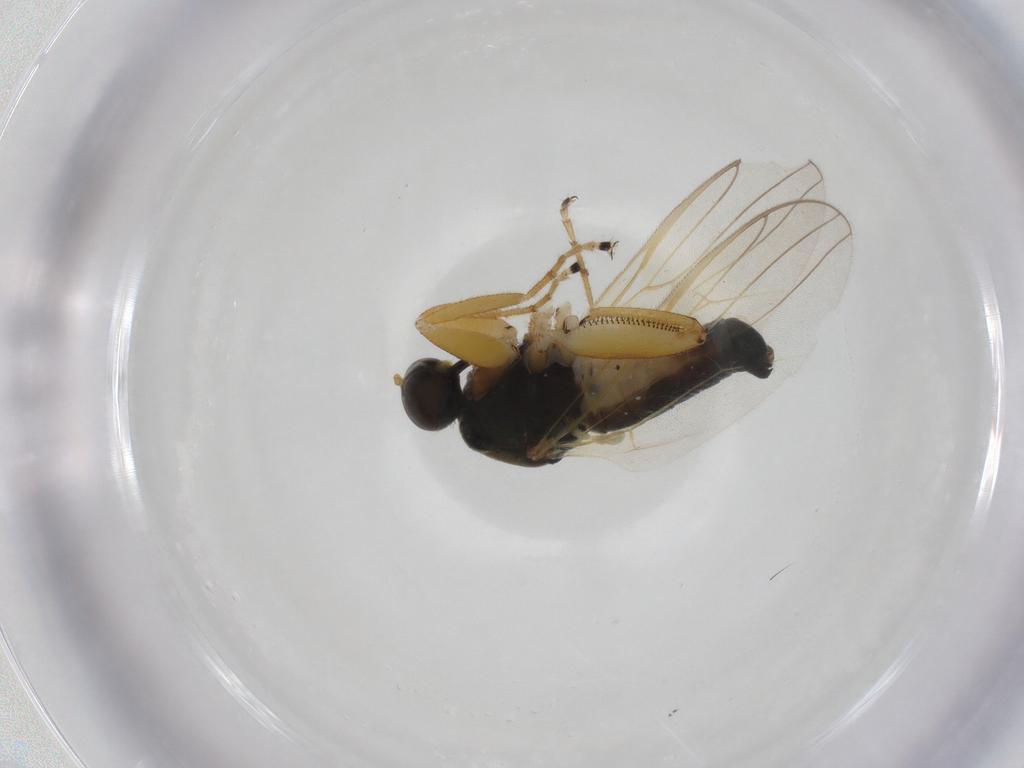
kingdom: Animalia
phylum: Arthropoda
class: Insecta
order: Diptera
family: Hybotidae
